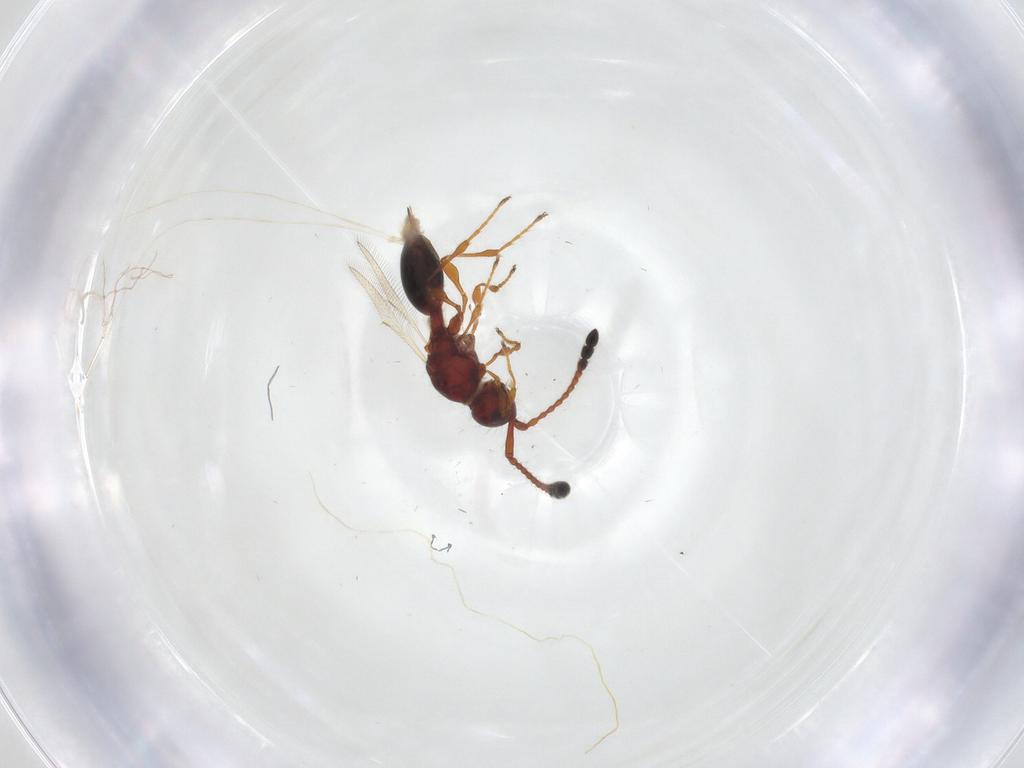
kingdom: Animalia
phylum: Arthropoda
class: Insecta
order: Hymenoptera
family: Diapriidae
